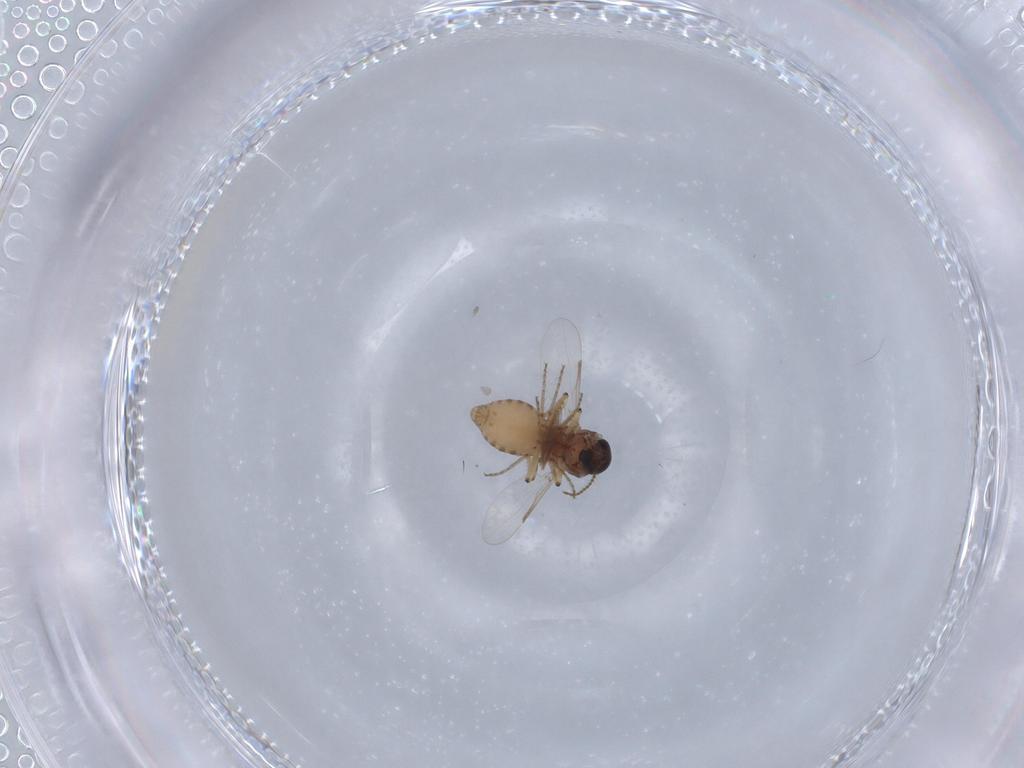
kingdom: Animalia
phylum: Arthropoda
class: Insecta
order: Diptera
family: Ceratopogonidae
